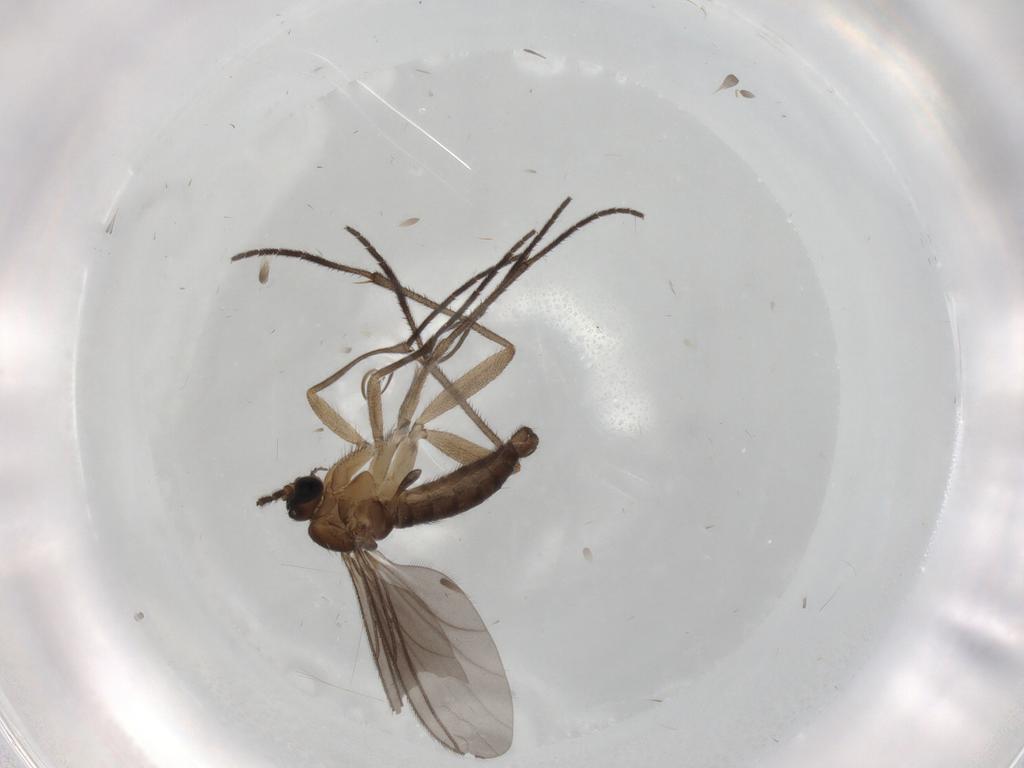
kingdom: Animalia
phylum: Arthropoda
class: Insecta
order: Diptera
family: Sciaridae
